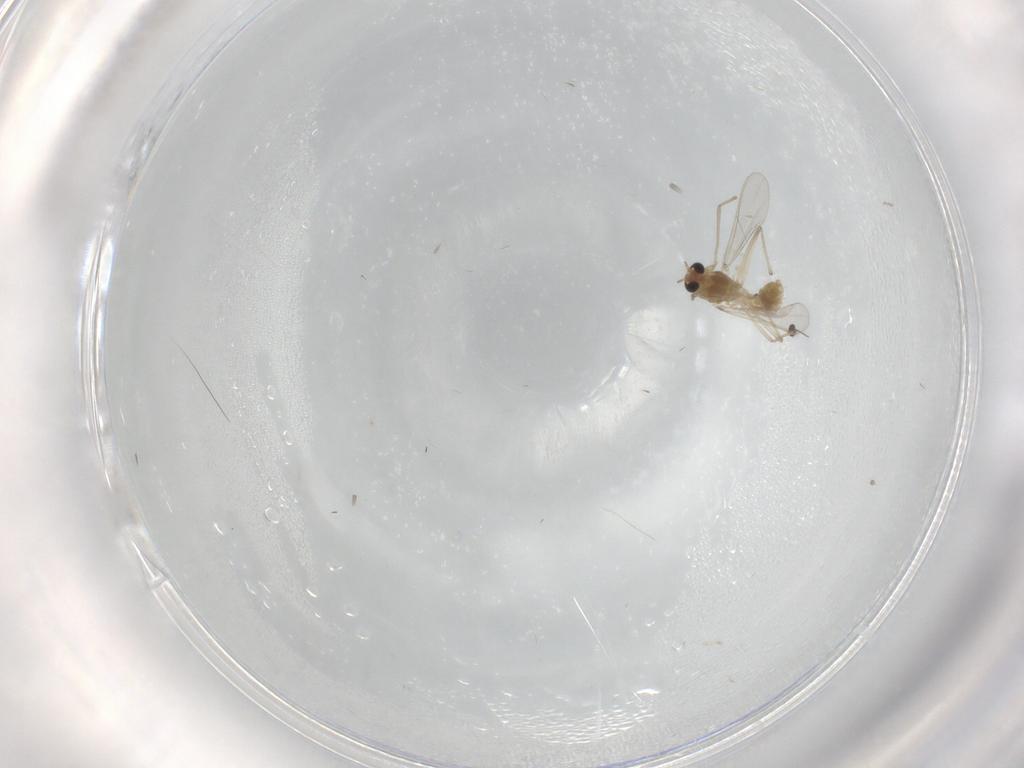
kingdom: Animalia
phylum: Arthropoda
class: Insecta
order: Diptera
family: Chironomidae
